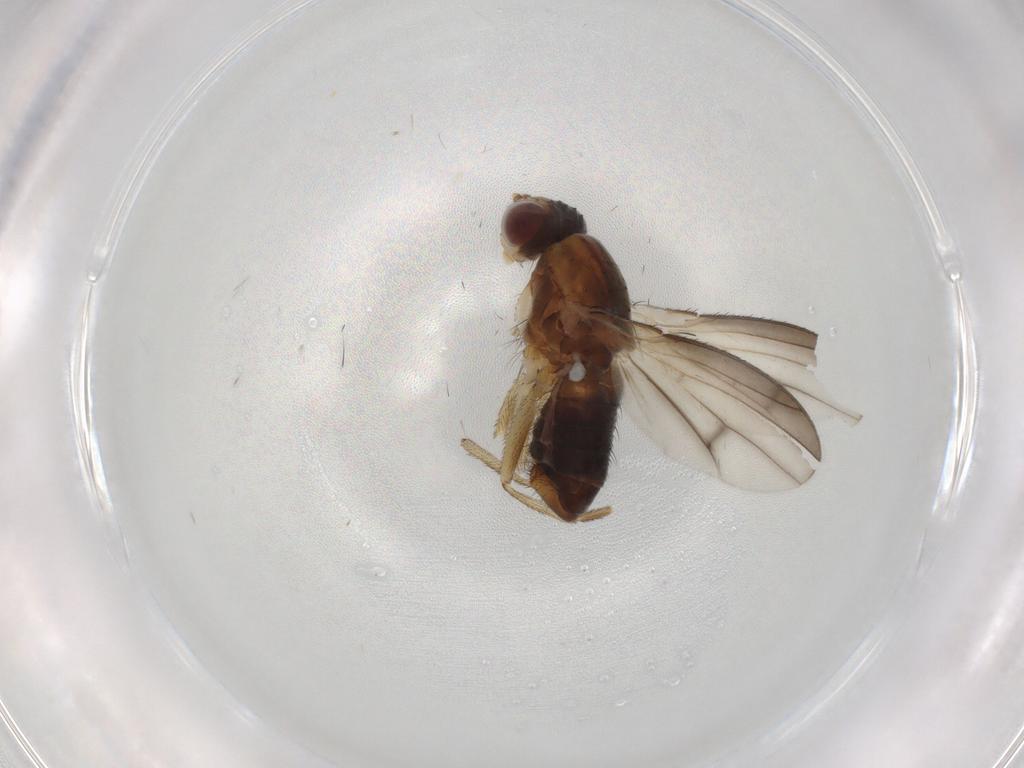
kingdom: Animalia
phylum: Arthropoda
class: Insecta
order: Diptera
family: Heleomyzidae
